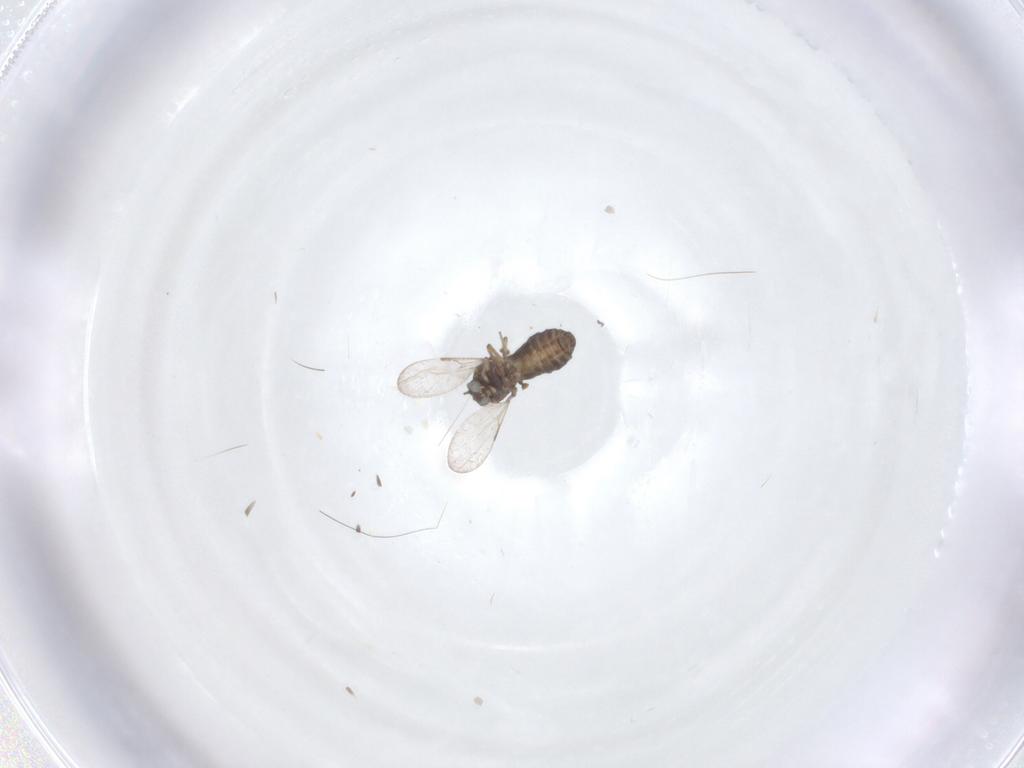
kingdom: Animalia
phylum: Arthropoda
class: Insecta
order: Diptera
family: Ceratopogonidae
